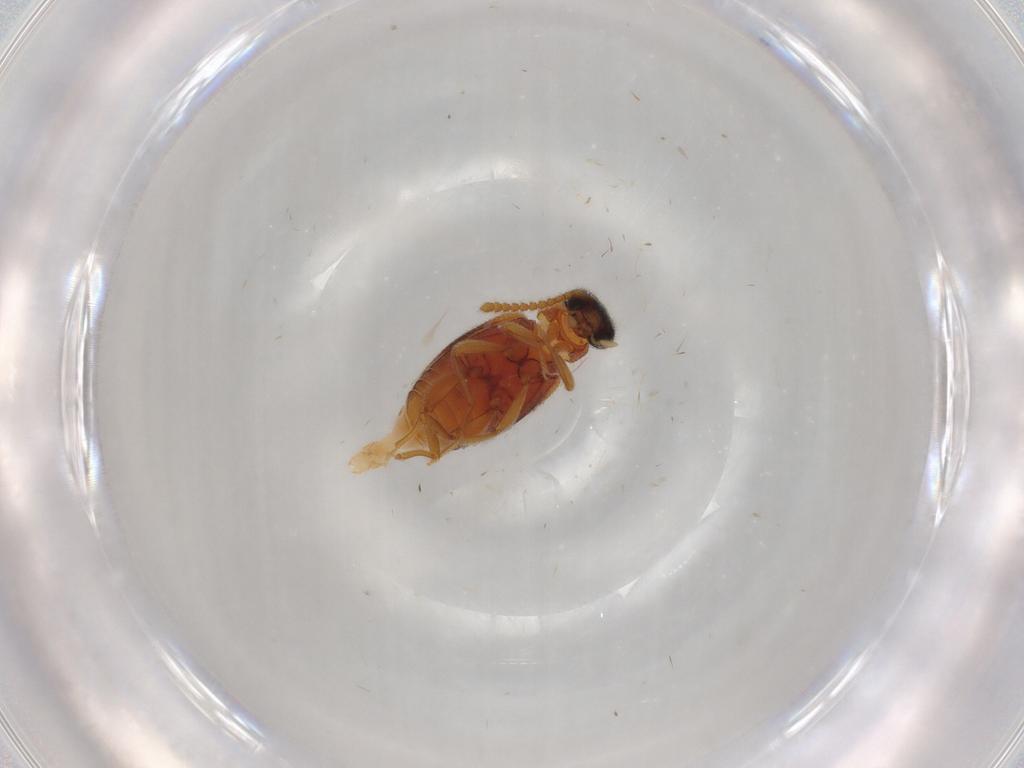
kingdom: Animalia
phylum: Arthropoda
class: Insecta
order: Coleoptera
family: Aderidae
